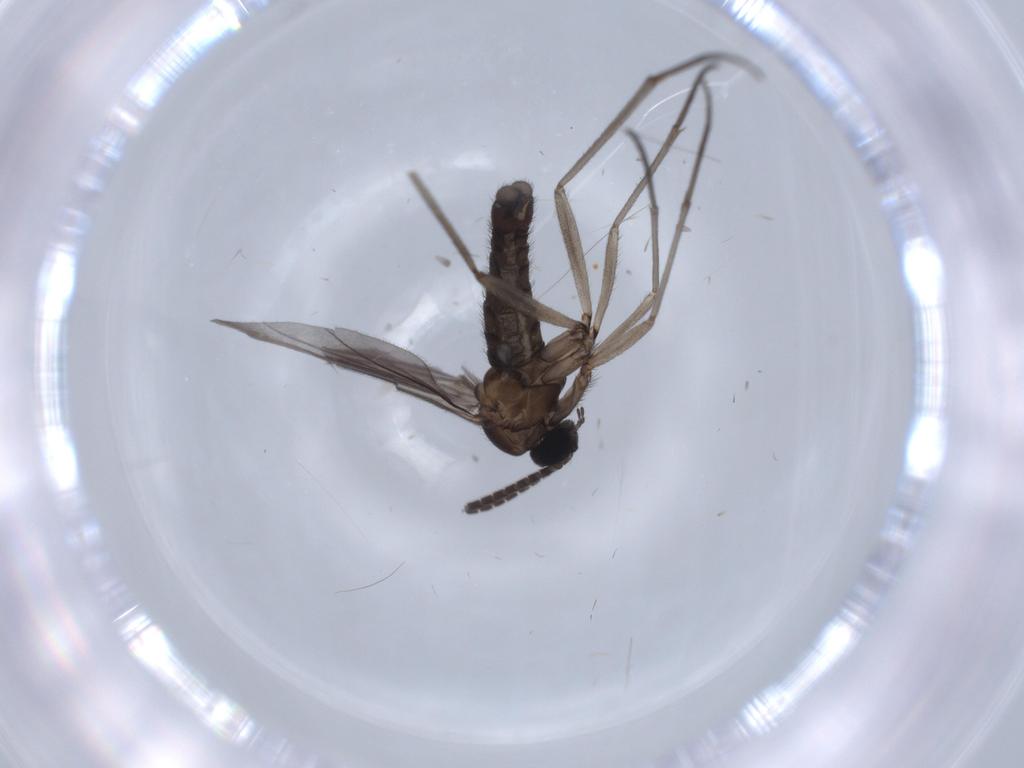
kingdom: Animalia
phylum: Arthropoda
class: Insecta
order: Diptera
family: Sciaridae
